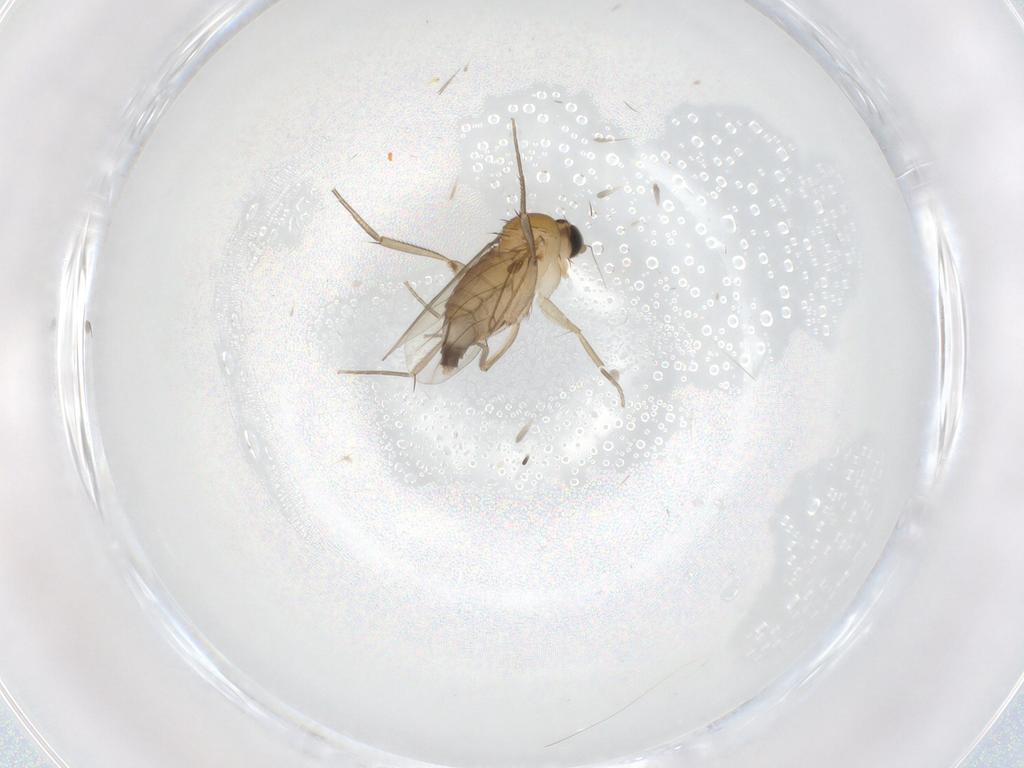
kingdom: Animalia
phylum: Arthropoda
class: Insecta
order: Diptera
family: Phoridae
